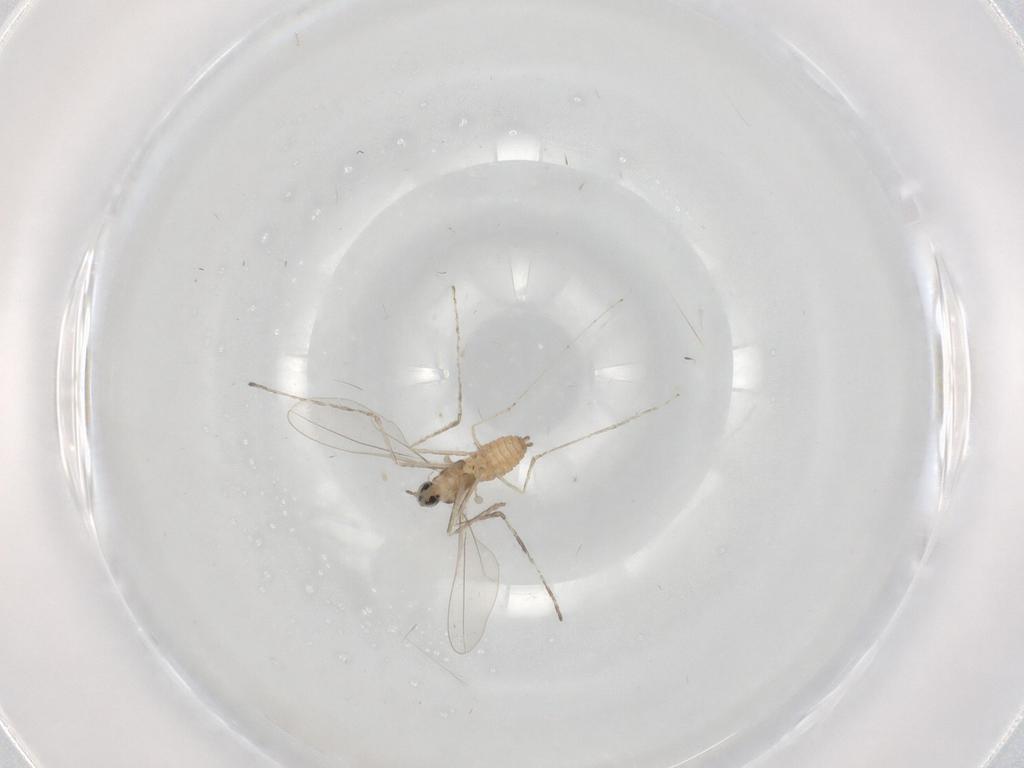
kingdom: Animalia
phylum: Arthropoda
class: Insecta
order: Diptera
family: Cecidomyiidae
